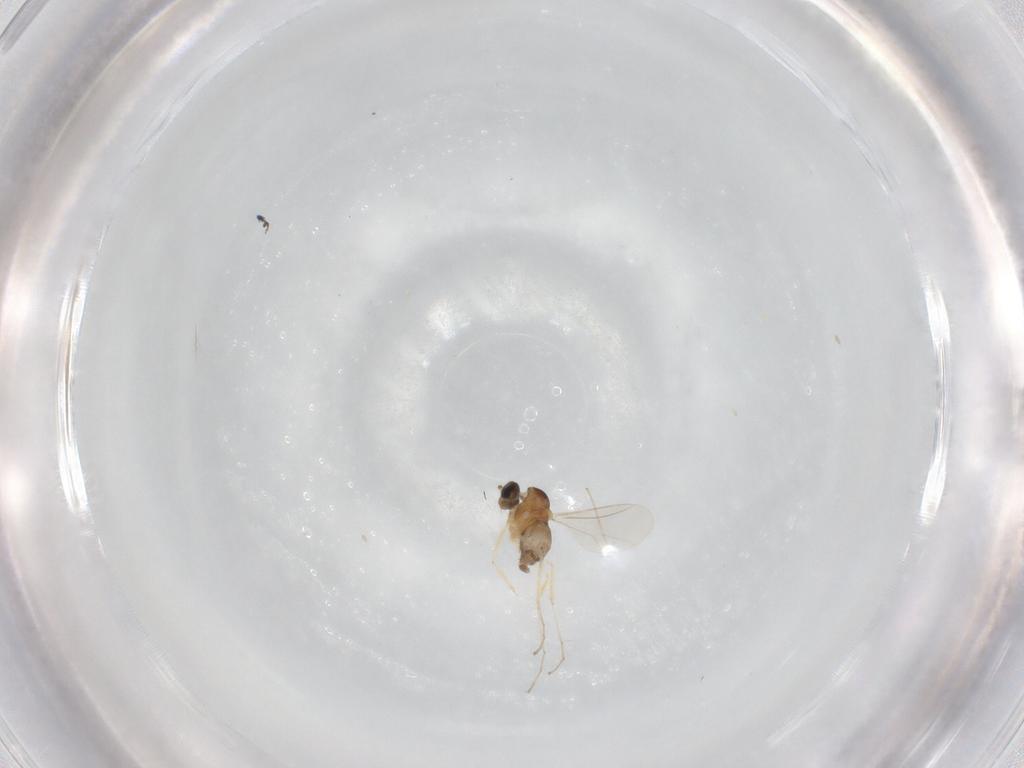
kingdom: Animalia
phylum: Arthropoda
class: Insecta
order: Diptera
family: Cecidomyiidae
